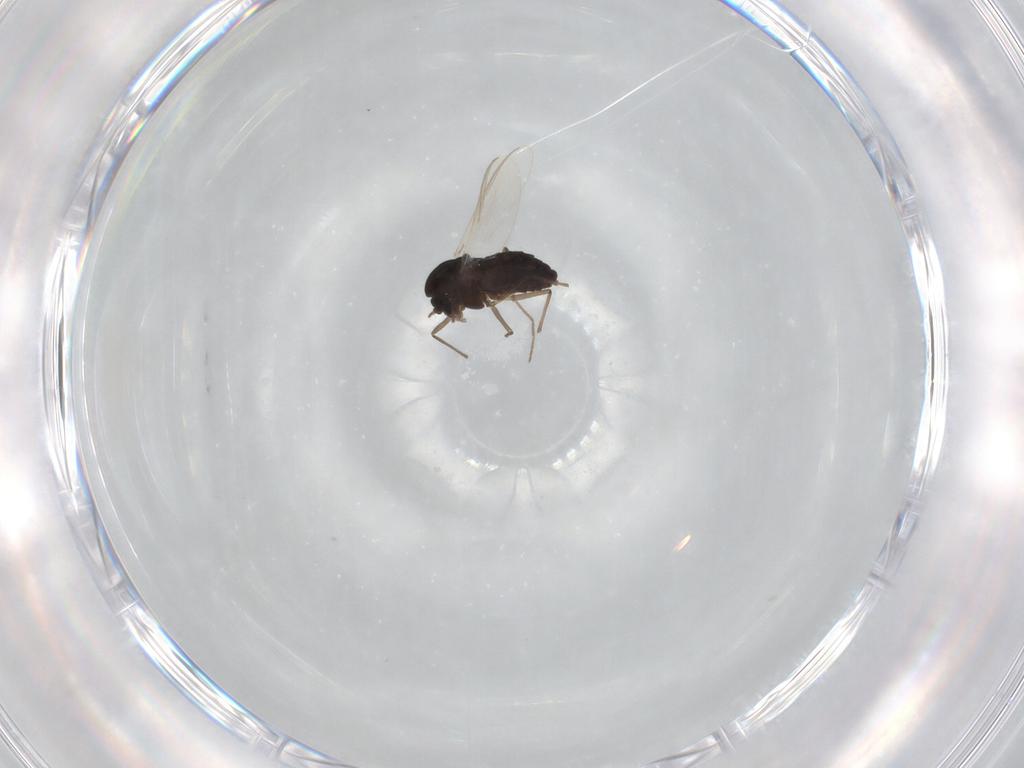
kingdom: Animalia
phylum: Arthropoda
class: Insecta
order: Diptera
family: Chironomidae
